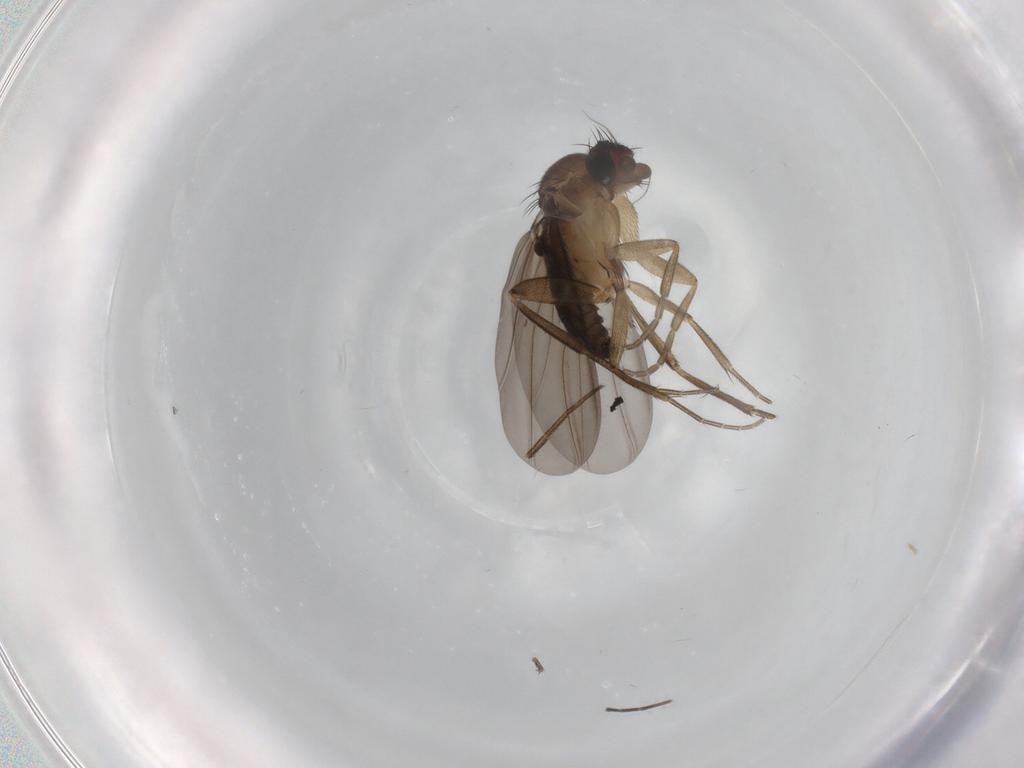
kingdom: Animalia
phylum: Arthropoda
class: Insecta
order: Diptera
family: Phoridae
